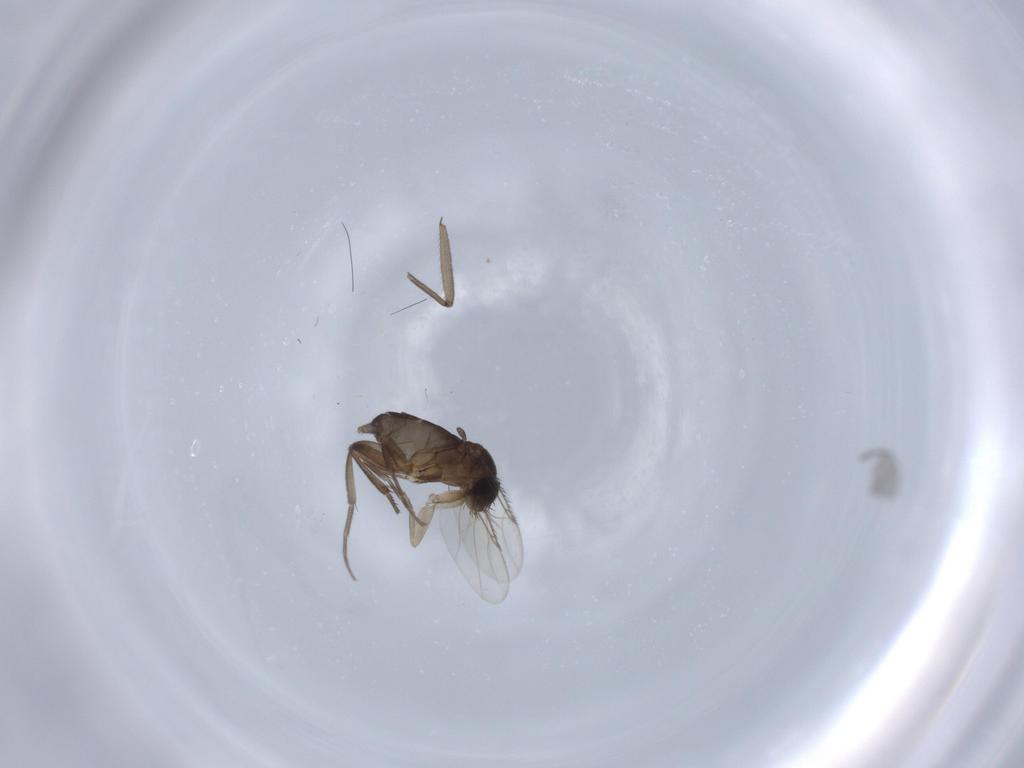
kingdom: Animalia
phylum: Arthropoda
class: Insecta
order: Diptera
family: Phoridae
